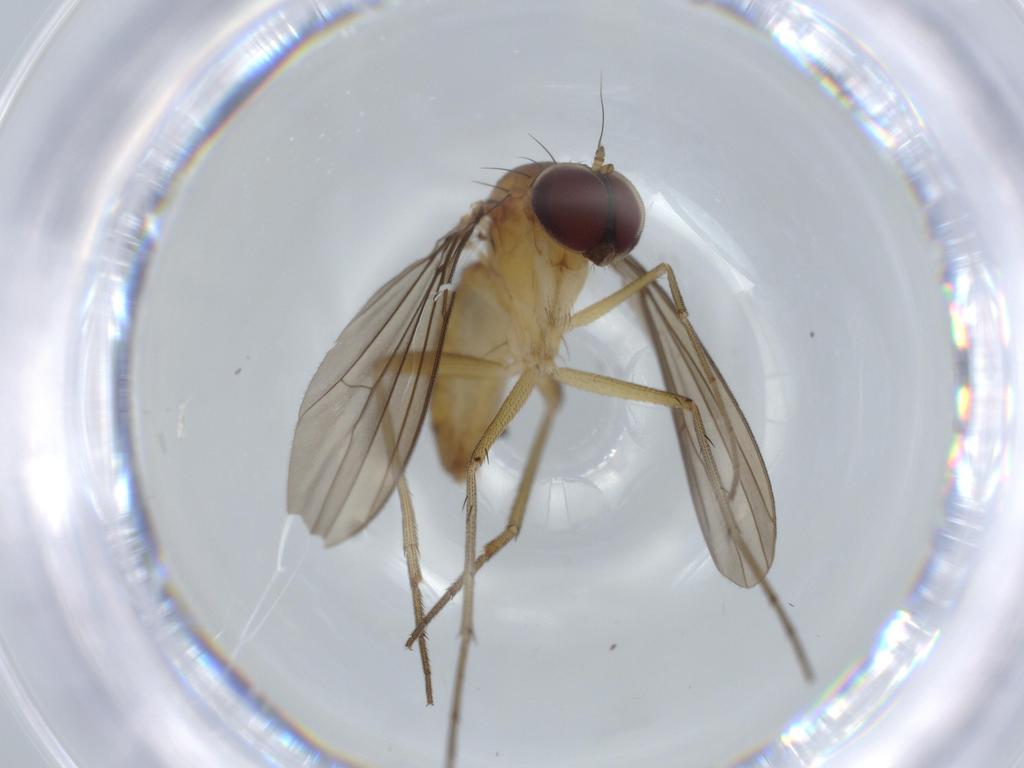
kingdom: Animalia
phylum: Arthropoda
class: Insecta
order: Diptera
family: Dolichopodidae
